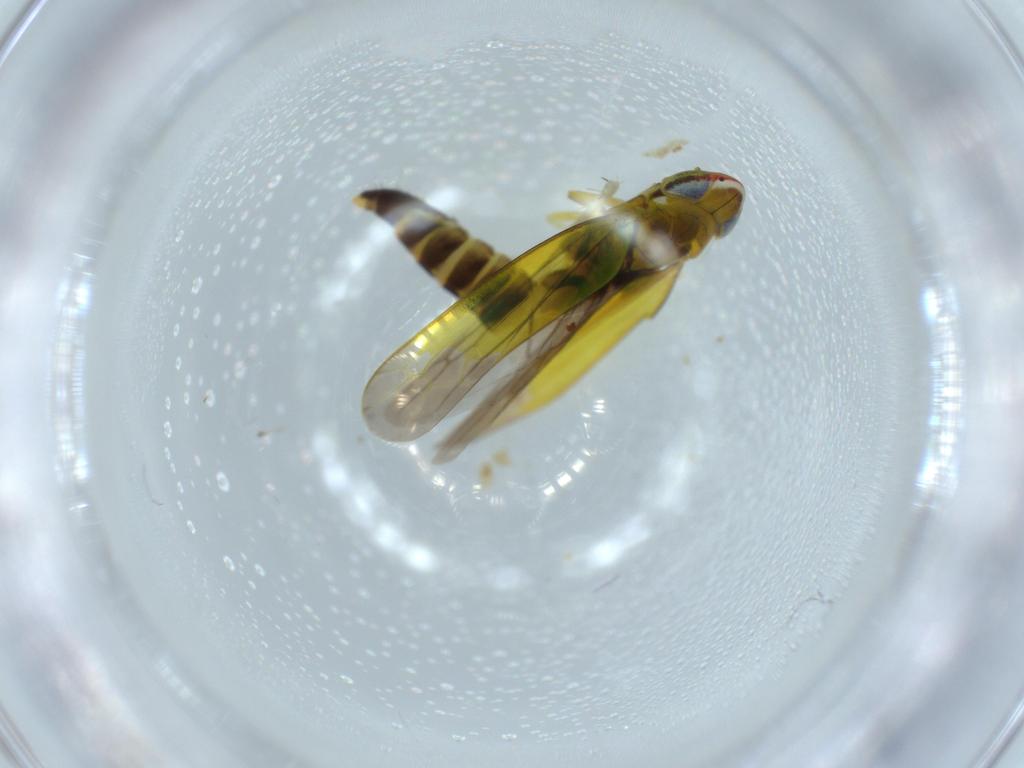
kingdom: Animalia
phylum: Arthropoda
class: Insecta
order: Hemiptera
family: Cicadellidae
